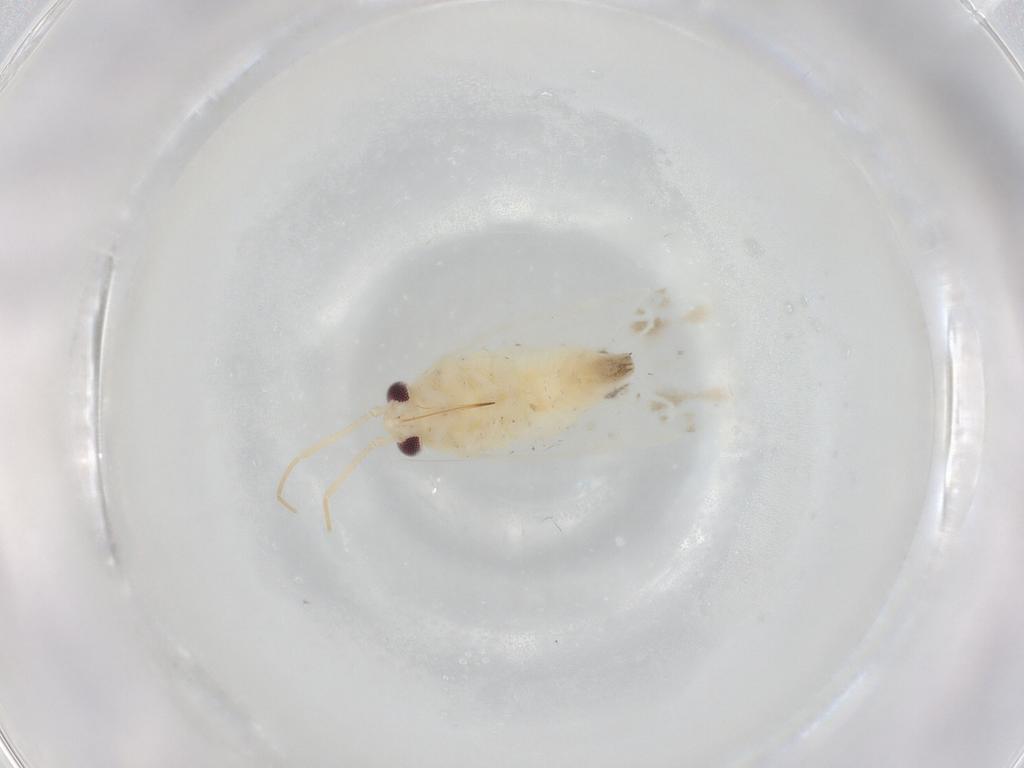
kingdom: Animalia
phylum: Arthropoda
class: Insecta
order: Hemiptera
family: Miridae
